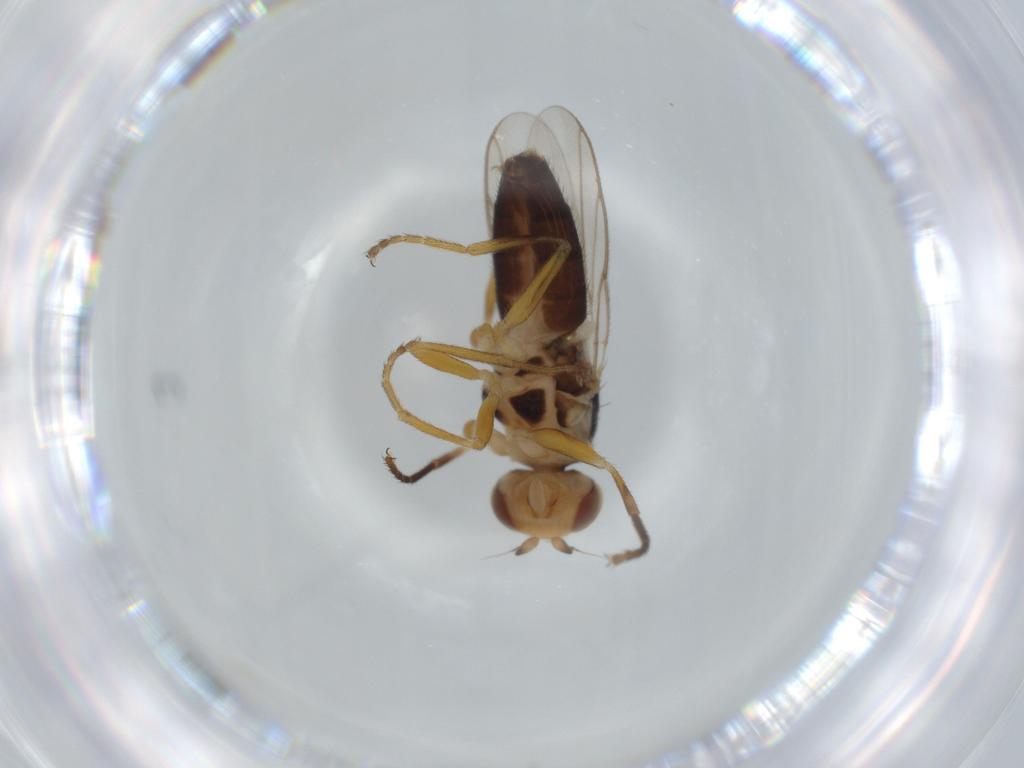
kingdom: Animalia
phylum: Arthropoda
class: Insecta
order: Diptera
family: Chloropidae
